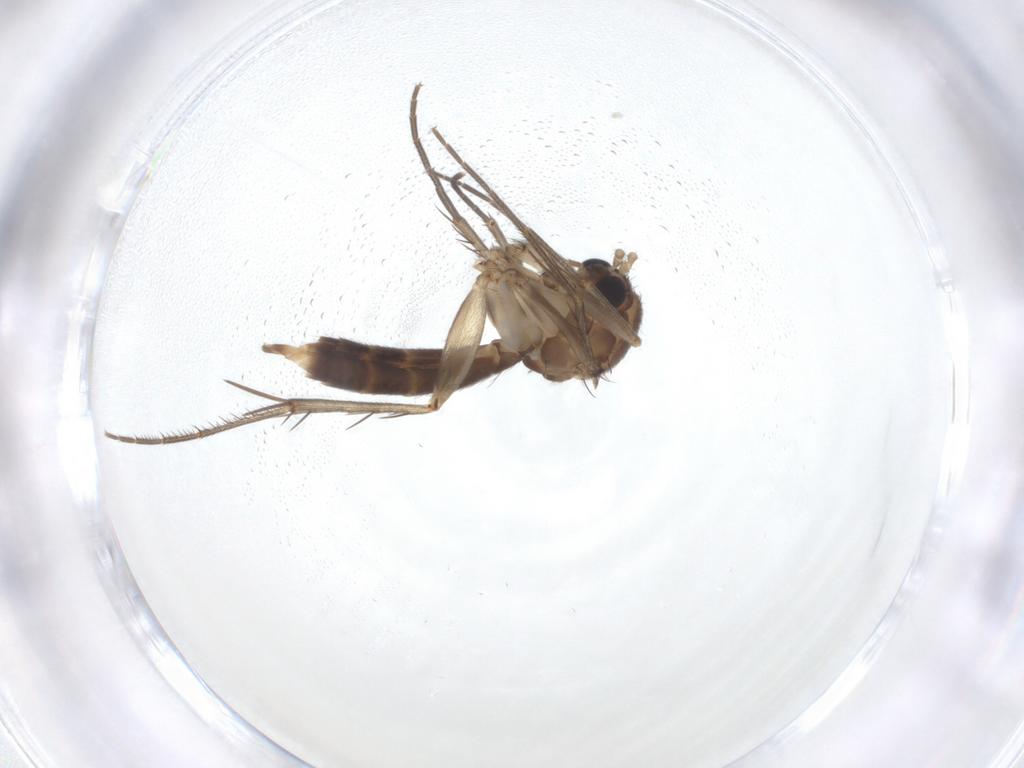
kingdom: Animalia
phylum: Arthropoda
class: Insecta
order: Diptera
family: Mycetophilidae
